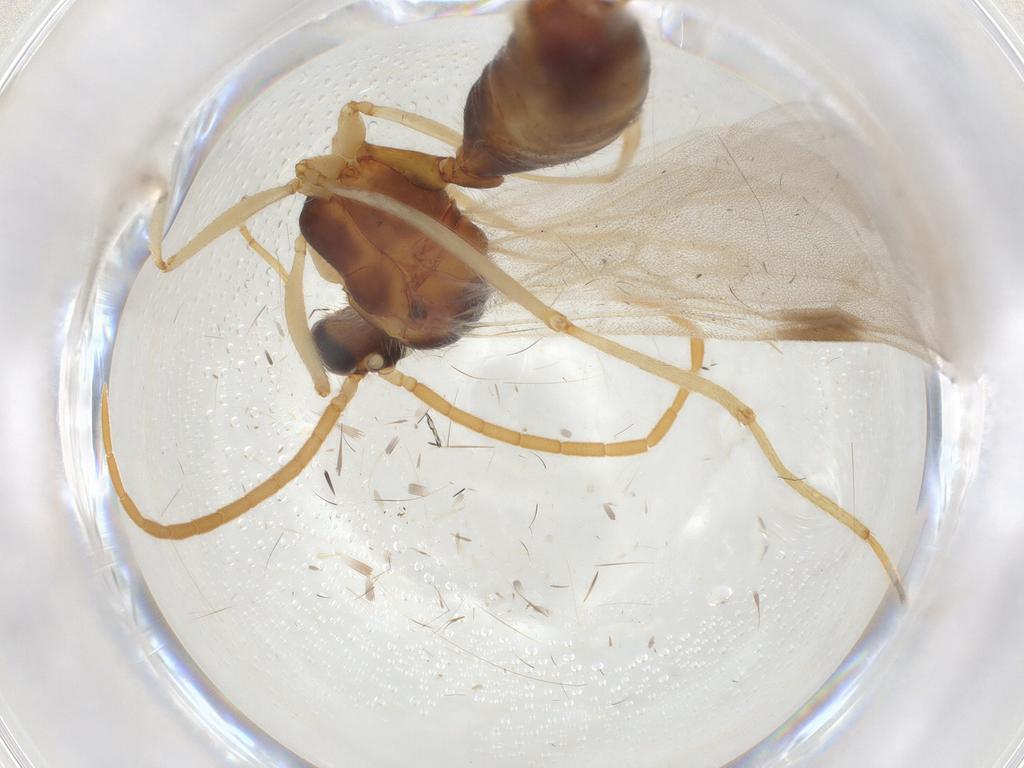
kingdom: Animalia
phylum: Arthropoda
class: Insecta
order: Hymenoptera
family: Formicidae
